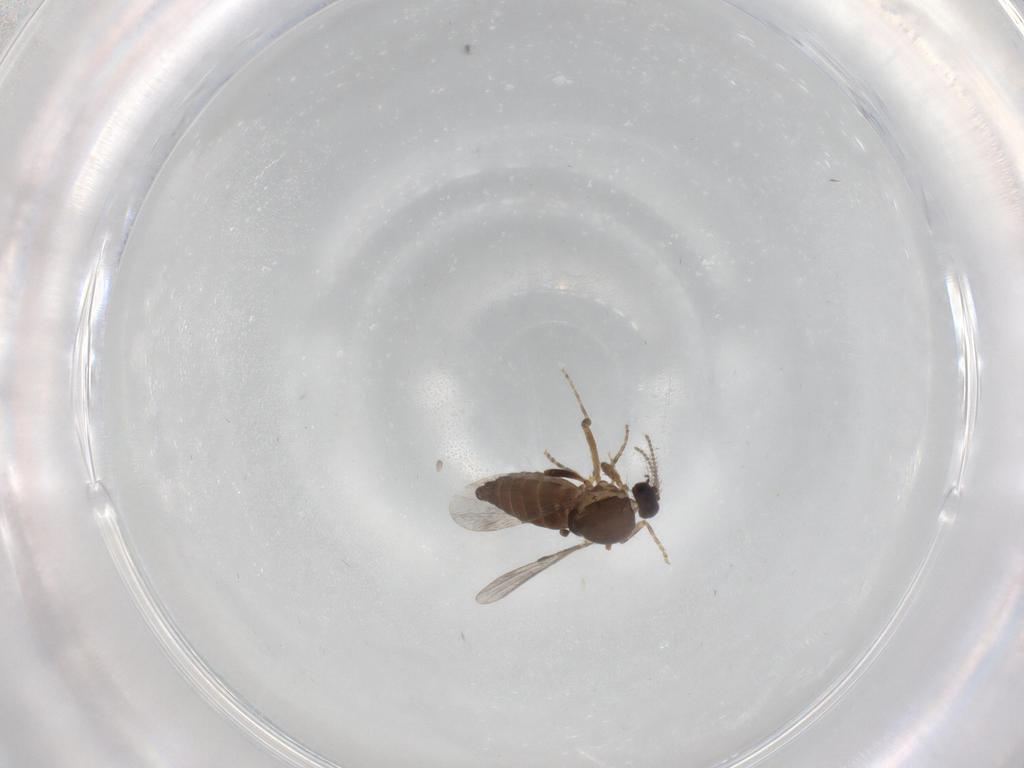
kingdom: Animalia
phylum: Arthropoda
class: Insecta
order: Diptera
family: Ceratopogonidae
